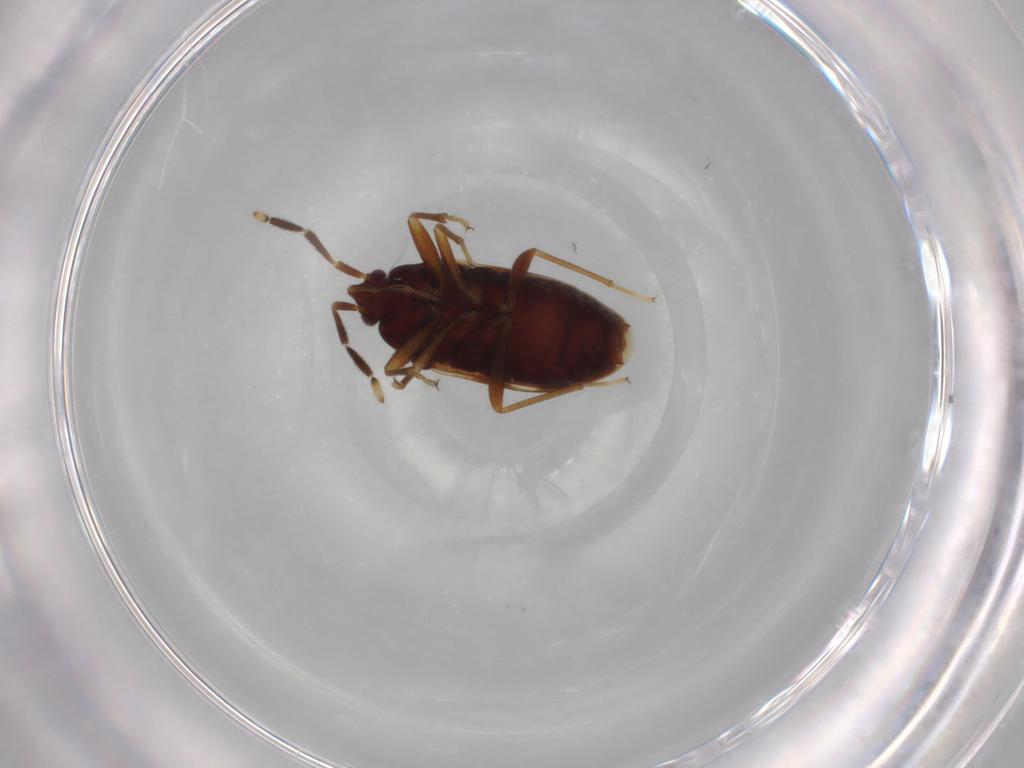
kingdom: Animalia
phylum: Arthropoda
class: Insecta
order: Hemiptera
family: Rhyparochromidae
